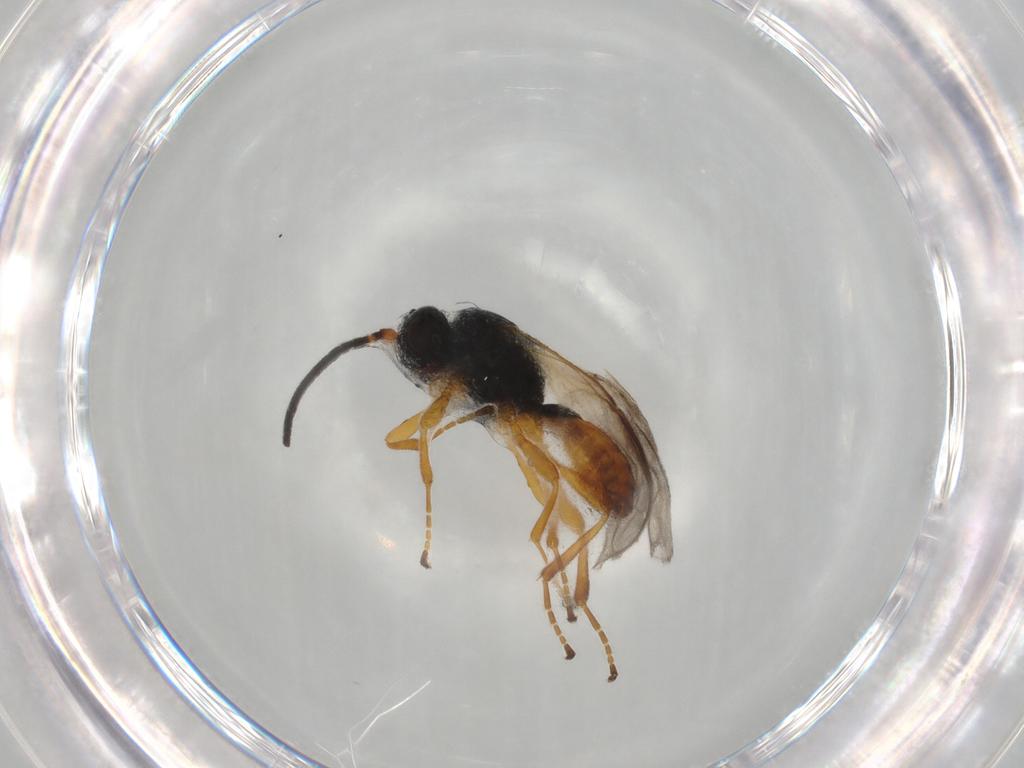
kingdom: Animalia
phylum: Arthropoda
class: Insecta
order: Hymenoptera
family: Braconidae
